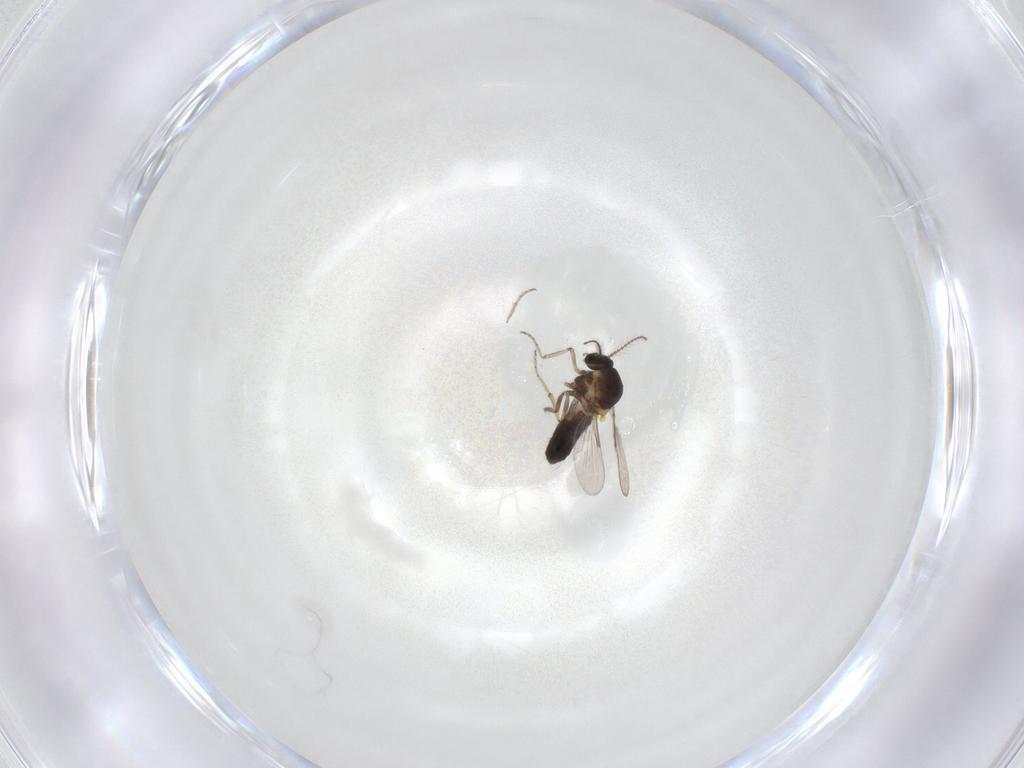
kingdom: Animalia
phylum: Arthropoda
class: Insecta
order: Diptera
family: Ceratopogonidae
